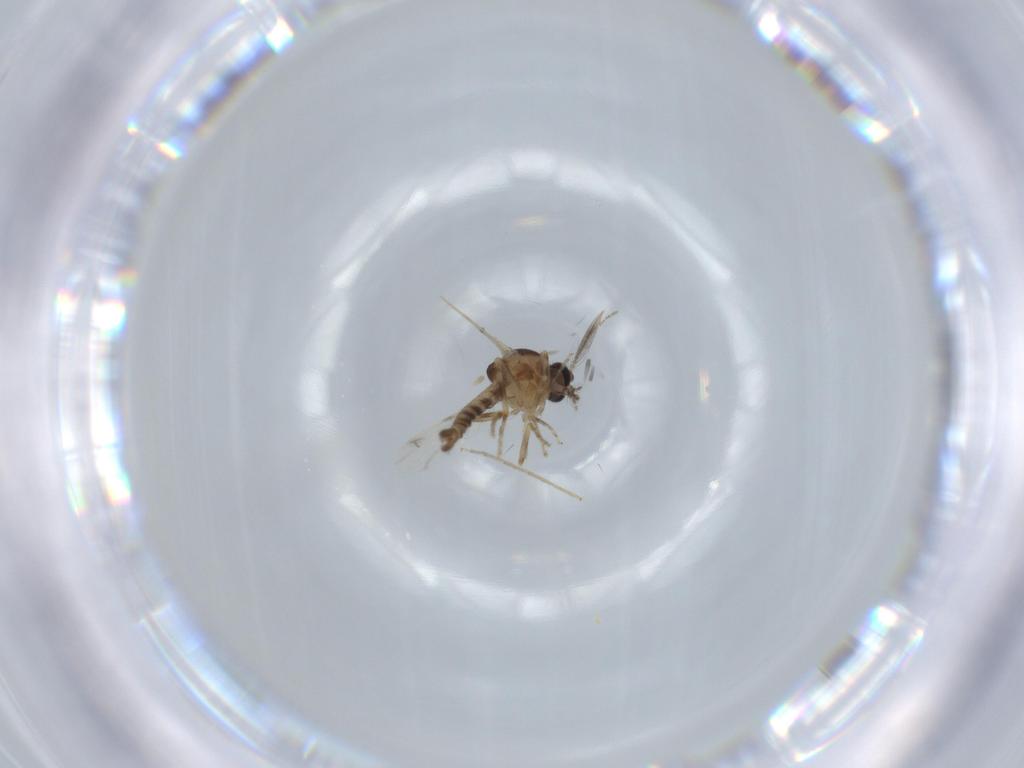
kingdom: Animalia
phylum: Arthropoda
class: Insecta
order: Diptera
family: Ceratopogonidae
